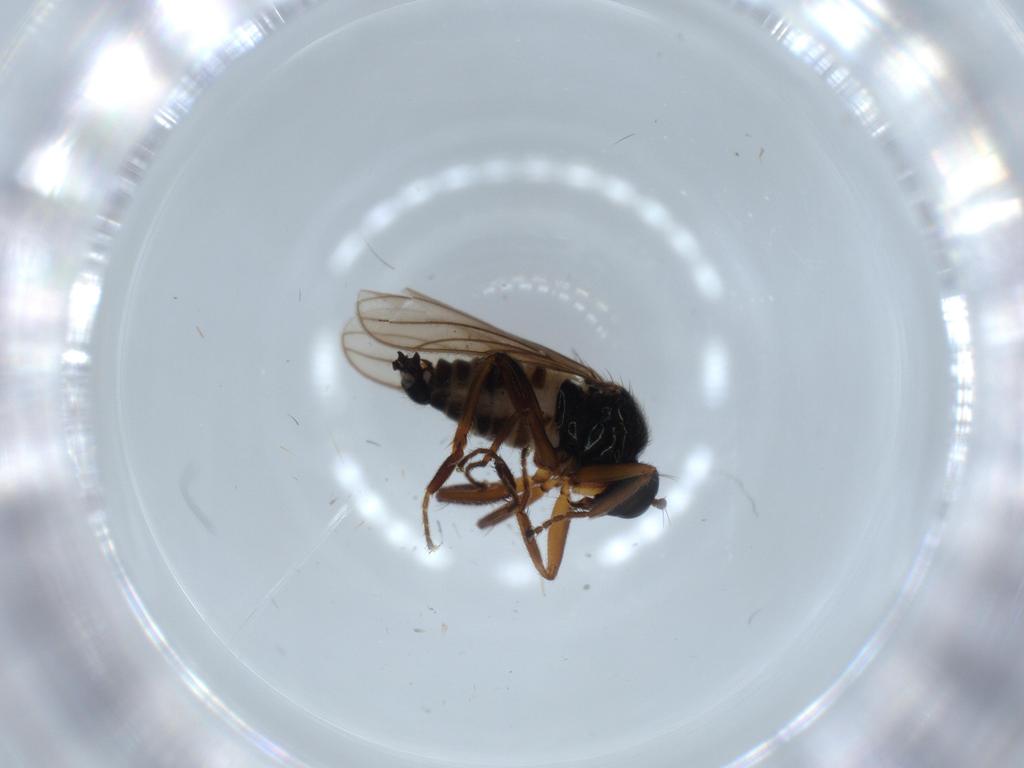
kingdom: Animalia
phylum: Arthropoda
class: Insecta
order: Diptera
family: Hybotidae
